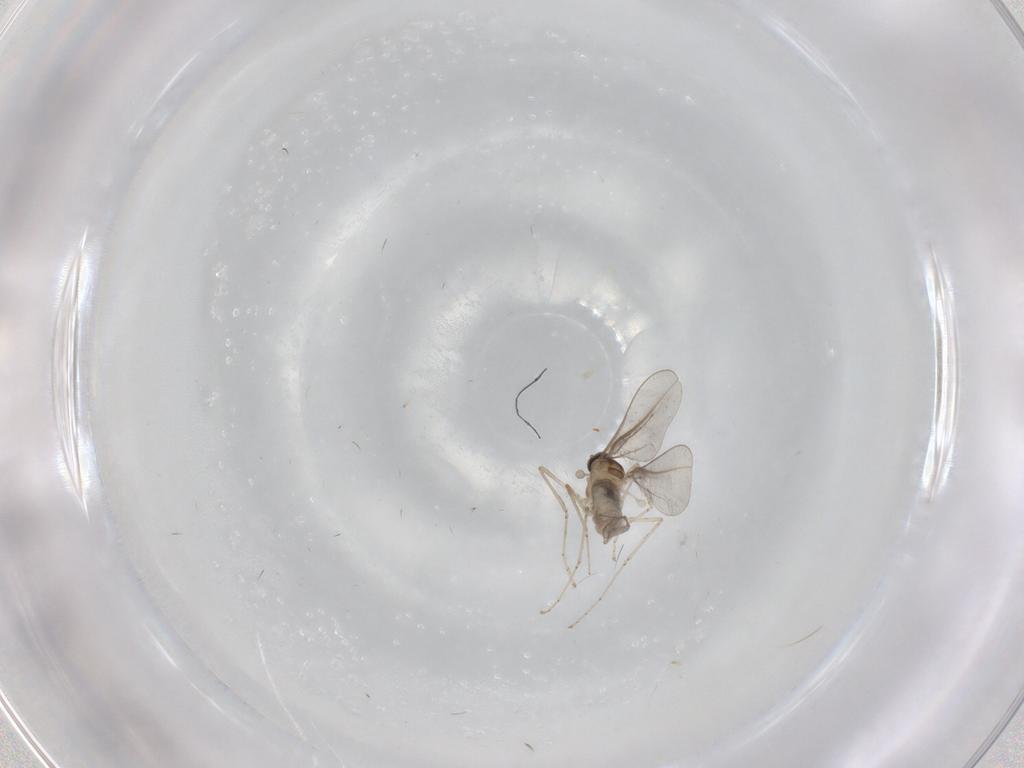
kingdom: Animalia
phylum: Arthropoda
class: Insecta
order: Diptera
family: Cecidomyiidae
